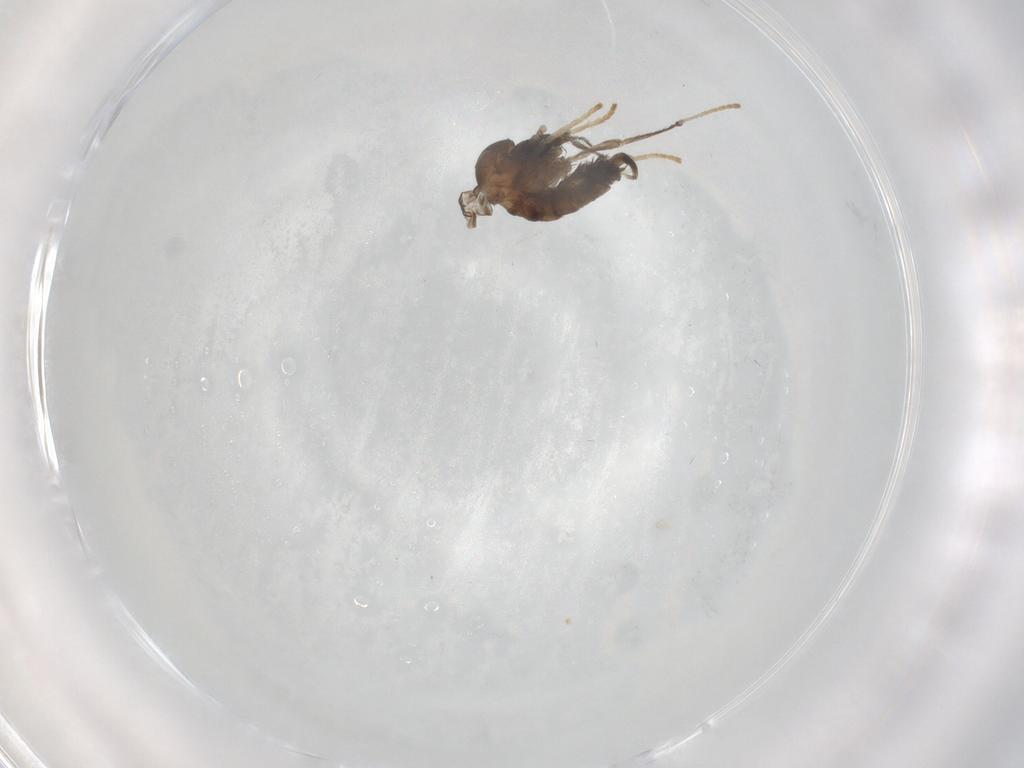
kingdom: Animalia
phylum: Arthropoda
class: Insecta
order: Diptera
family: Psychodidae
